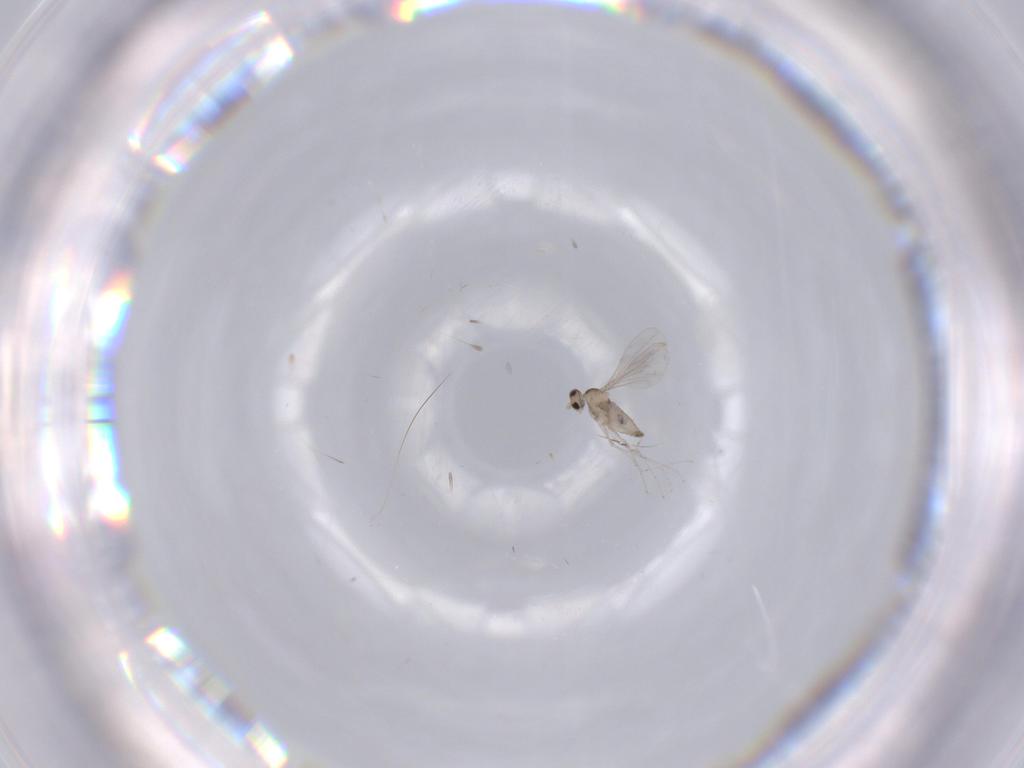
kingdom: Animalia
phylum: Arthropoda
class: Insecta
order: Diptera
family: Cecidomyiidae
